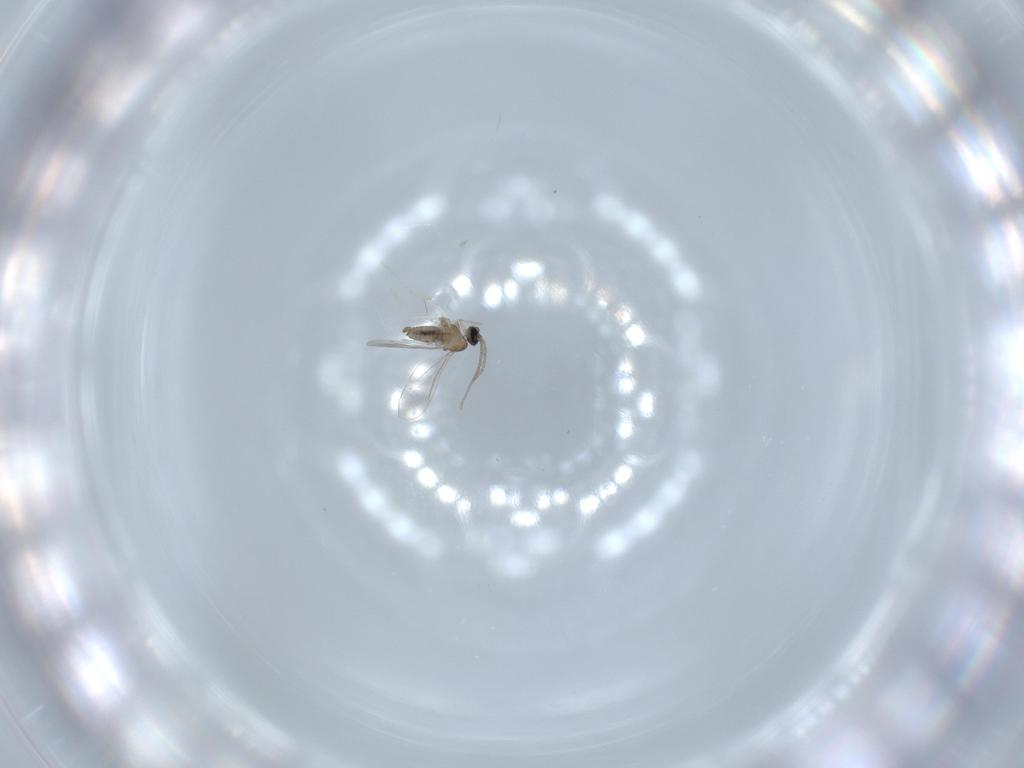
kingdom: Animalia
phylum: Arthropoda
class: Insecta
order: Diptera
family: Cecidomyiidae
